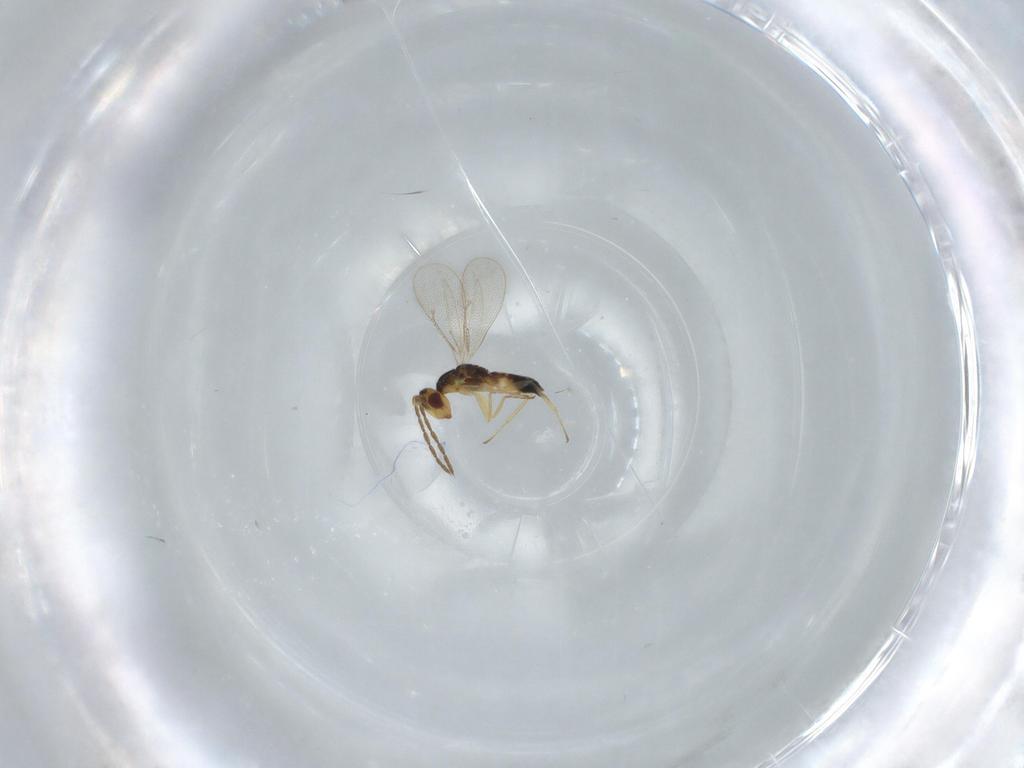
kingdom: Animalia
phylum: Arthropoda
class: Insecta
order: Hymenoptera
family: Eulophidae
